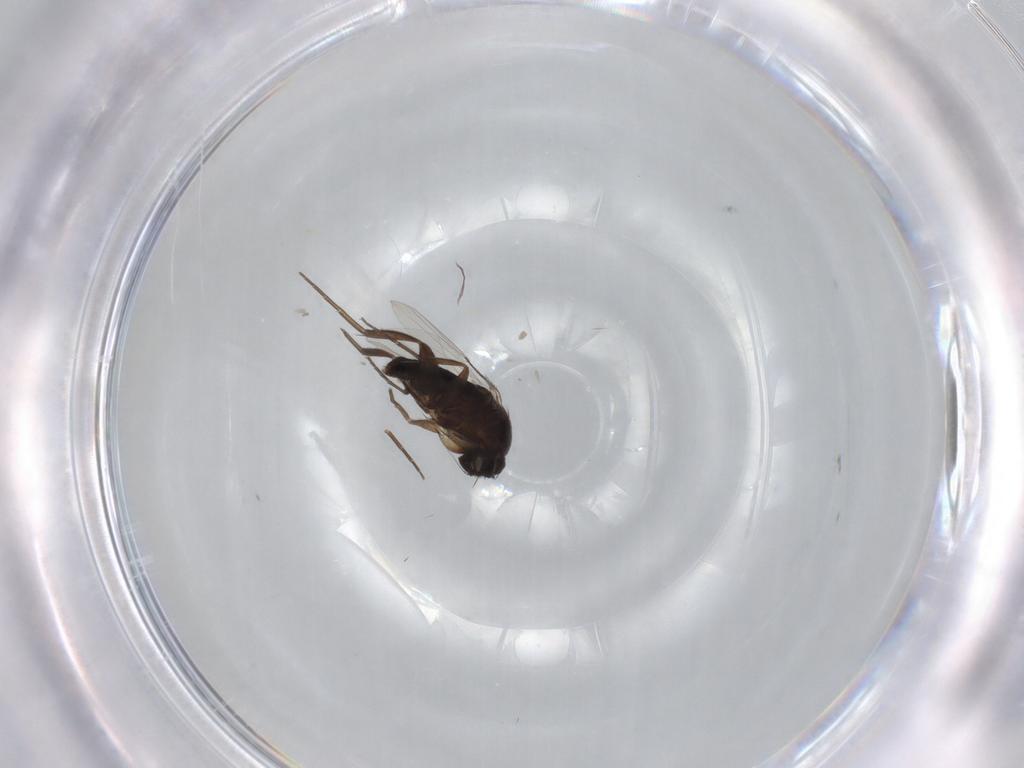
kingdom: Animalia
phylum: Arthropoda
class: Insecta
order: Diptera
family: Phoridae
